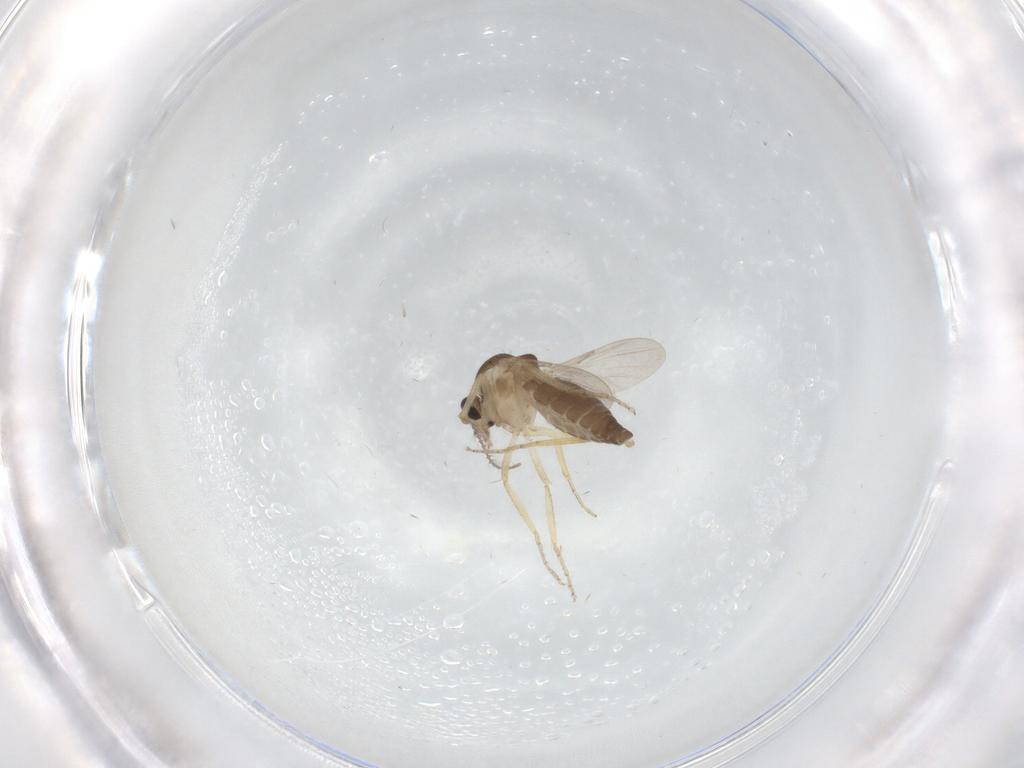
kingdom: Animalia
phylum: Arthropoda
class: Insecta
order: Diptera
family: Ceratopogonidae
